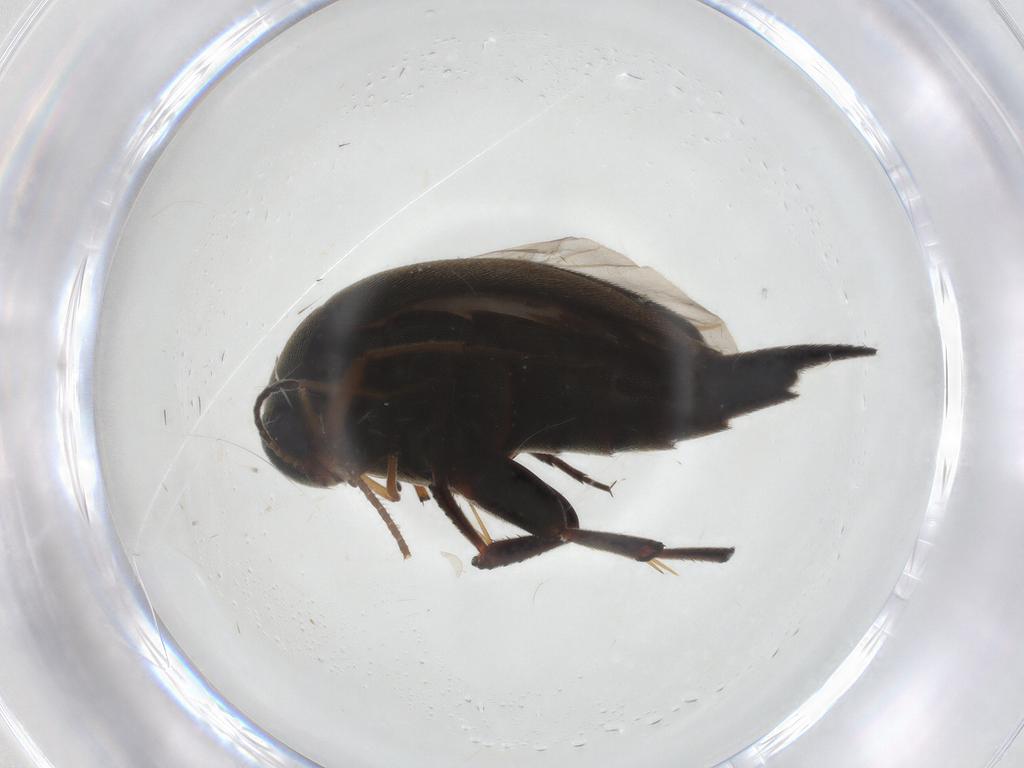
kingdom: Animalia
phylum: Arthropoda
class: Insecta
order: Coleoptera
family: Mordellidae
